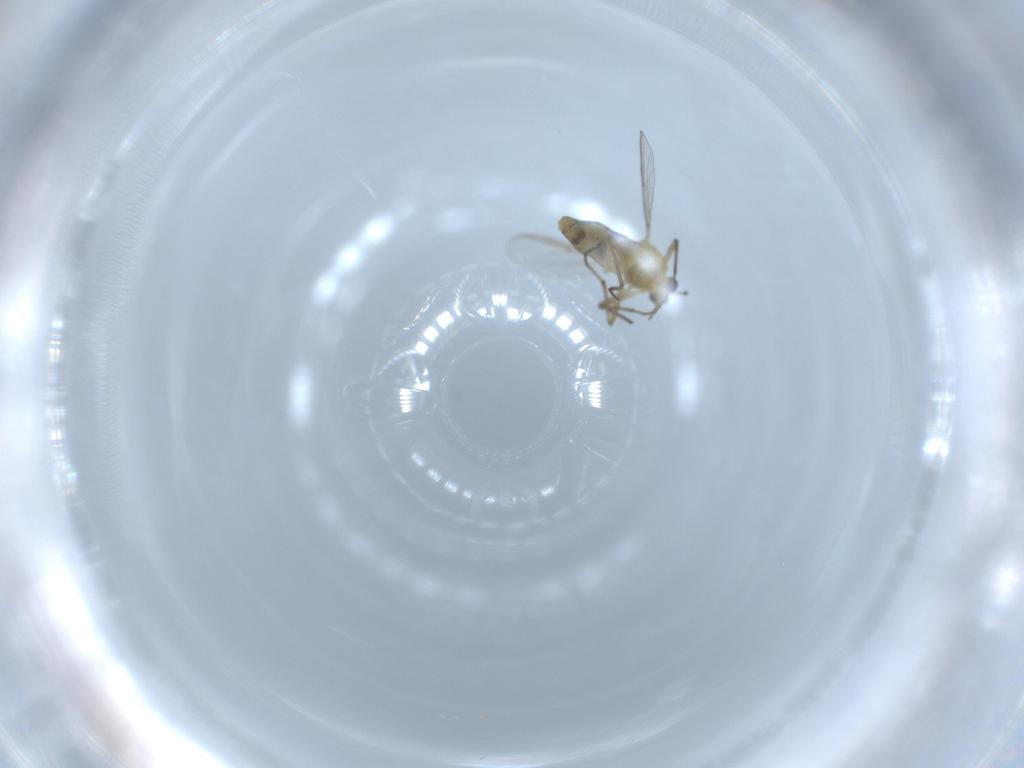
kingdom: Animalia
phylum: Arthropoda
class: Insecta
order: Diptera
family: Chironomidae
